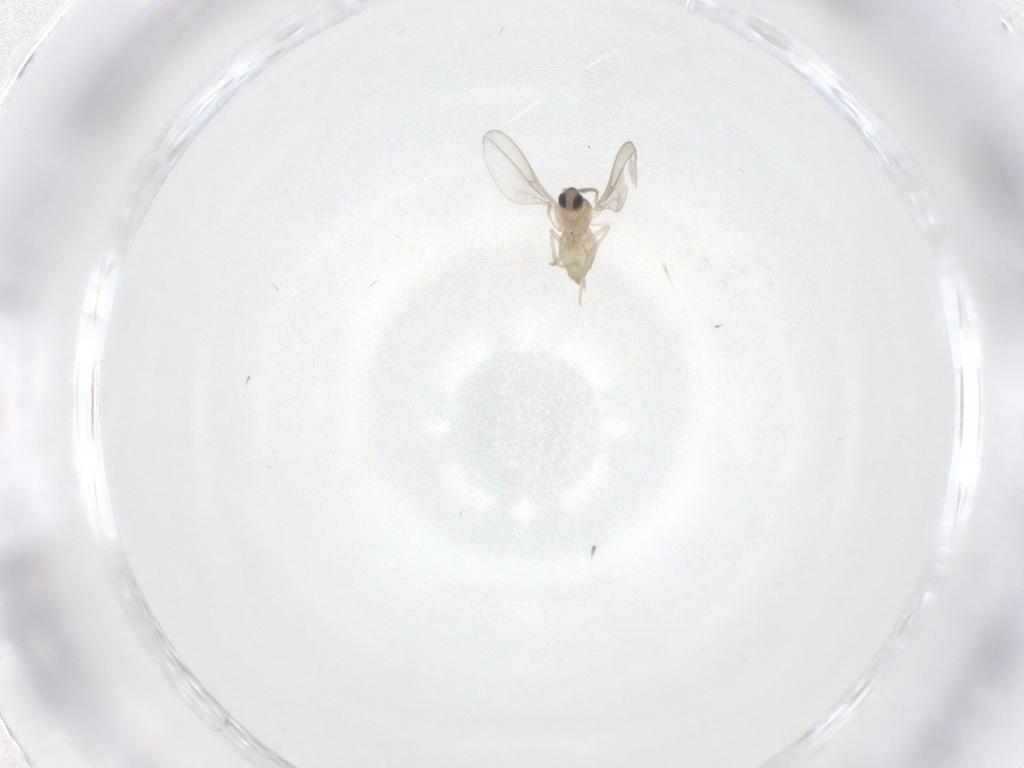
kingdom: Animalia
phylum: Arthropoda
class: Insecta
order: Diptera
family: Cecidomyiidae
